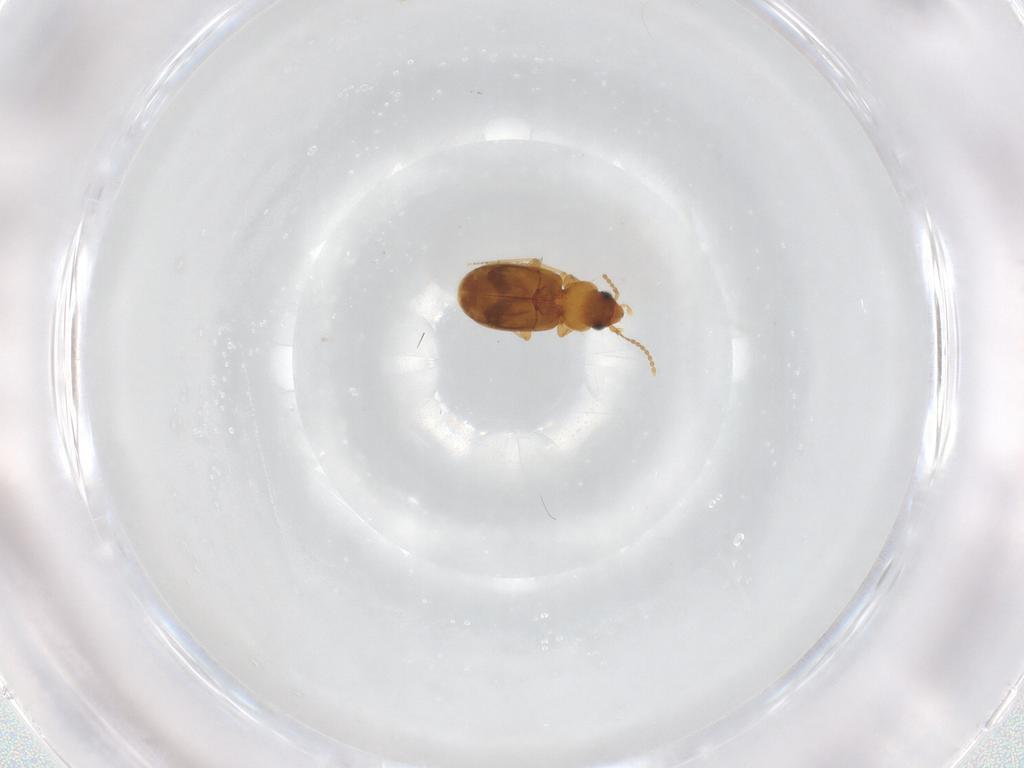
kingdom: Animalia
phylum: Arthropoda
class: Insecta
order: Coleoptera
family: Carabidae
